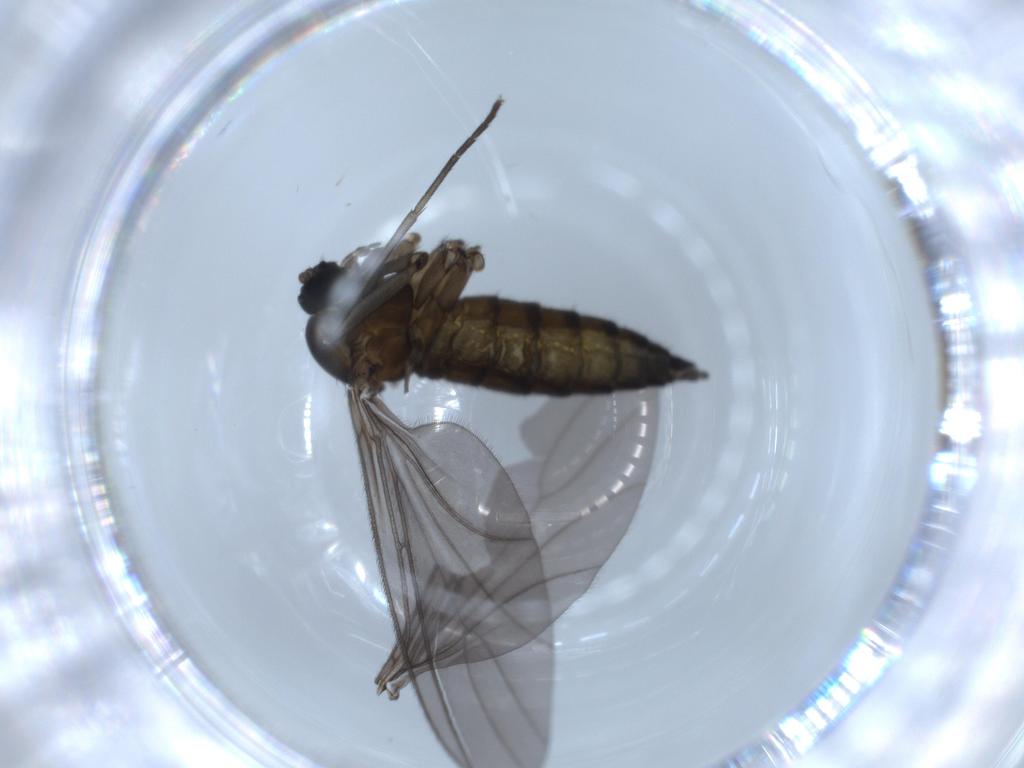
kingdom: Animalia
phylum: Arthropoda
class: Insecta
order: Diptera
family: Sciaridae
